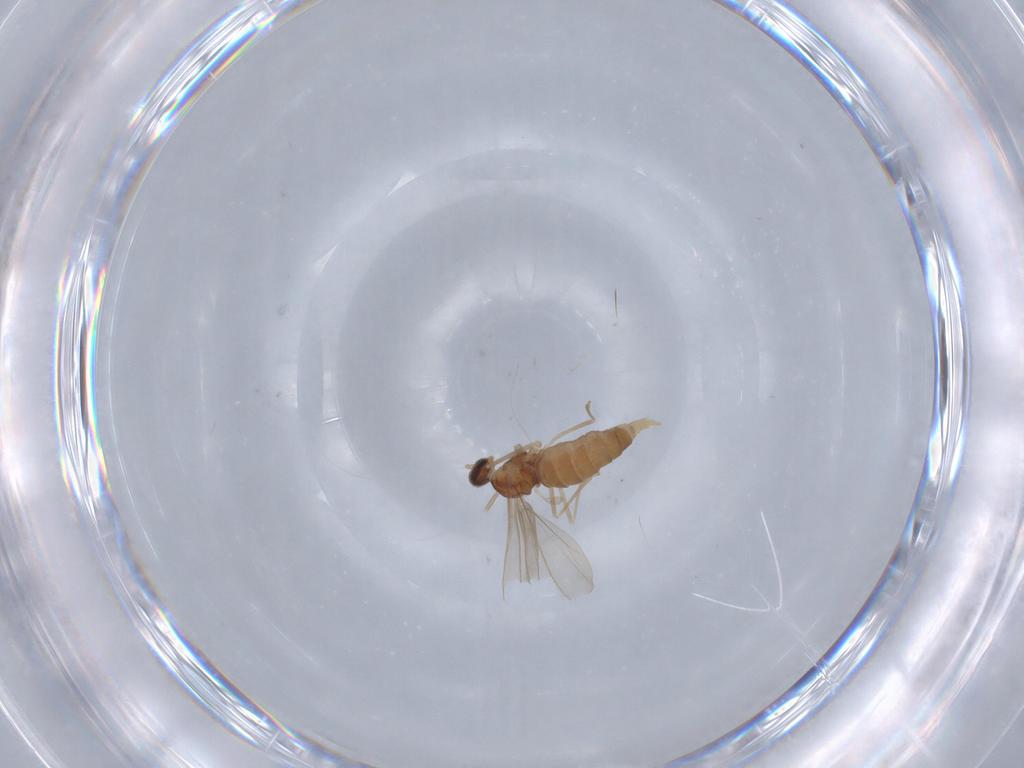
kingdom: Animalia
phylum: Arthropoda
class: Insecta
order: Diptera
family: Cecidomyiidae
